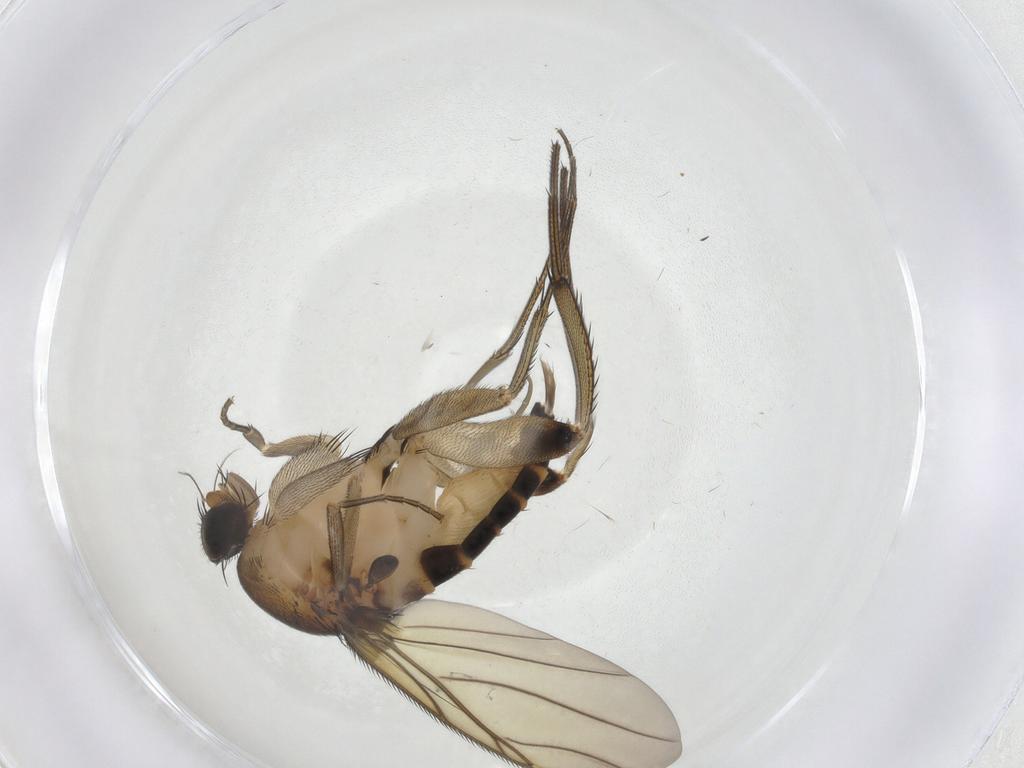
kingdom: Animalia
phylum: Arthropoda
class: Insecta
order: Diptera
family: Phoridae
